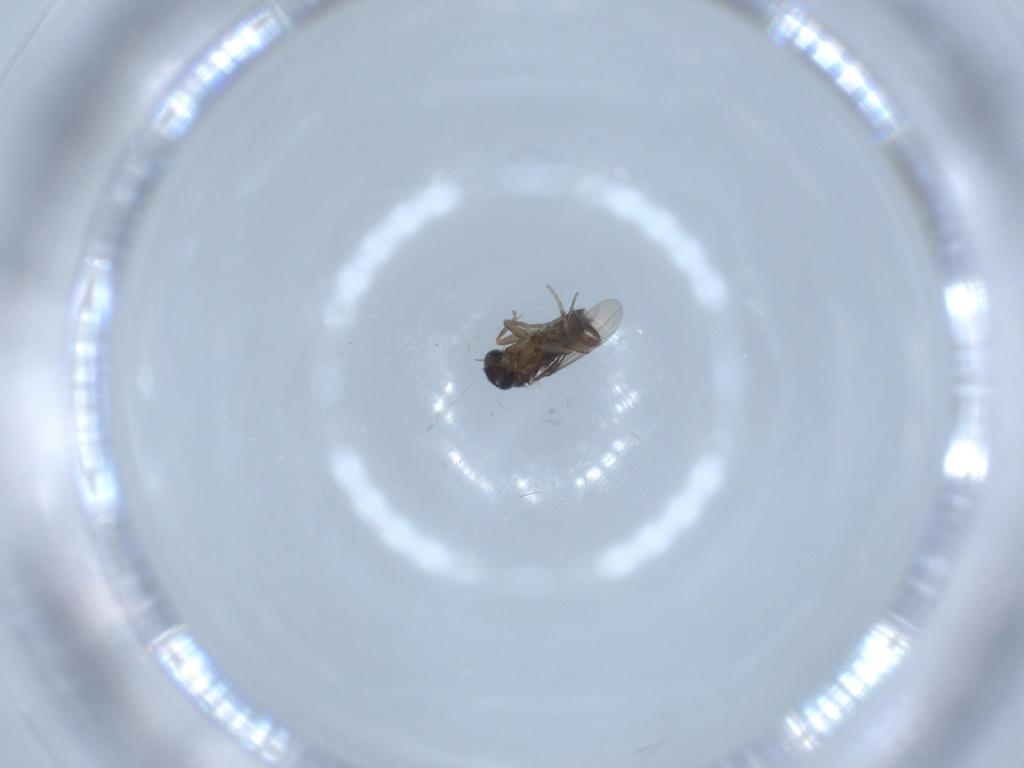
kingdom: Animalia
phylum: Arthropoda
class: Insecta
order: Diptera
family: Phoridae
